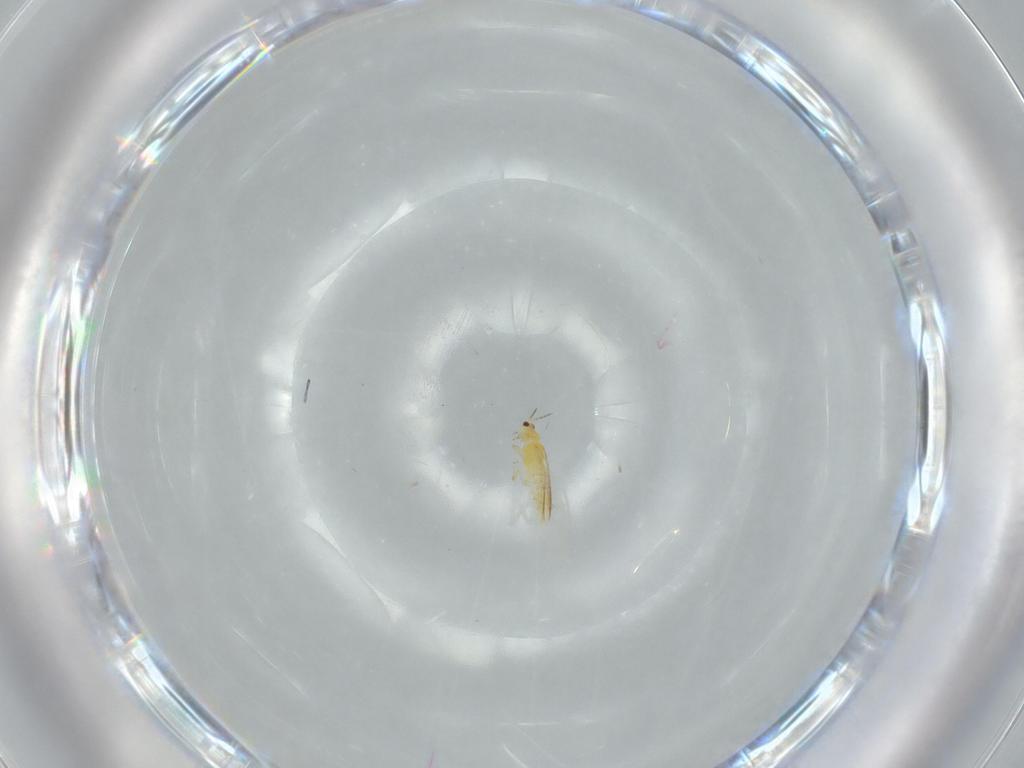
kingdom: Animalia
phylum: Arthropoda
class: Insecta
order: Thysanoptera
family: Thripidae
